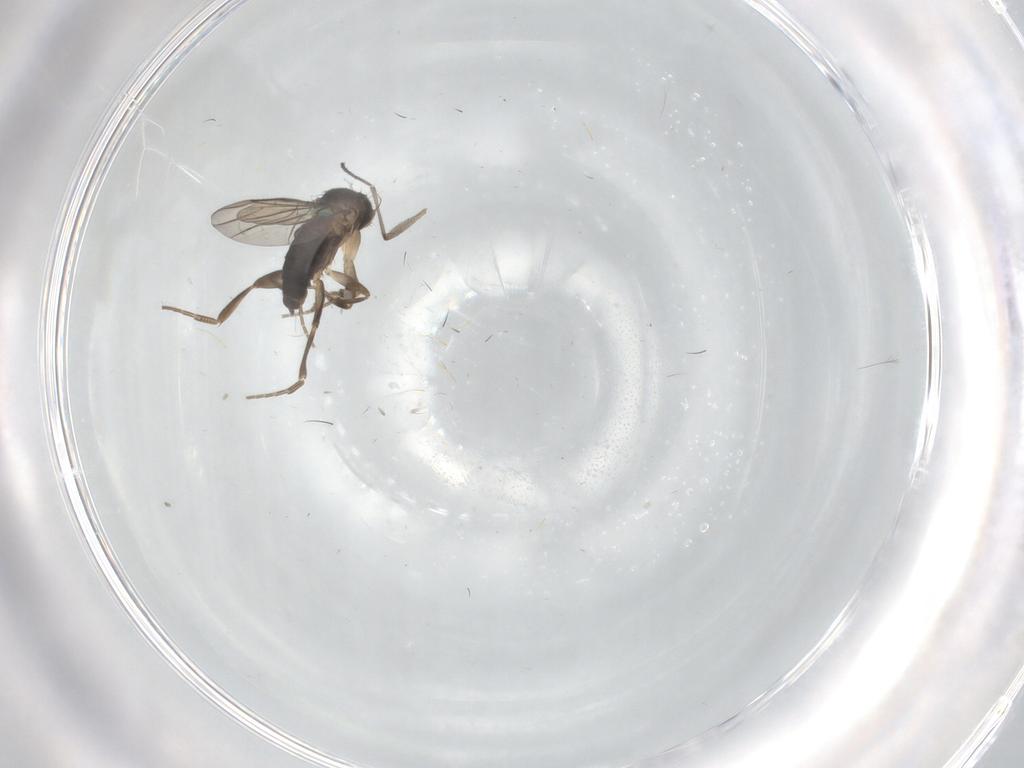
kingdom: Animalia
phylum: Arthropoda
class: Insecta
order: Diptera
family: Phoridae
